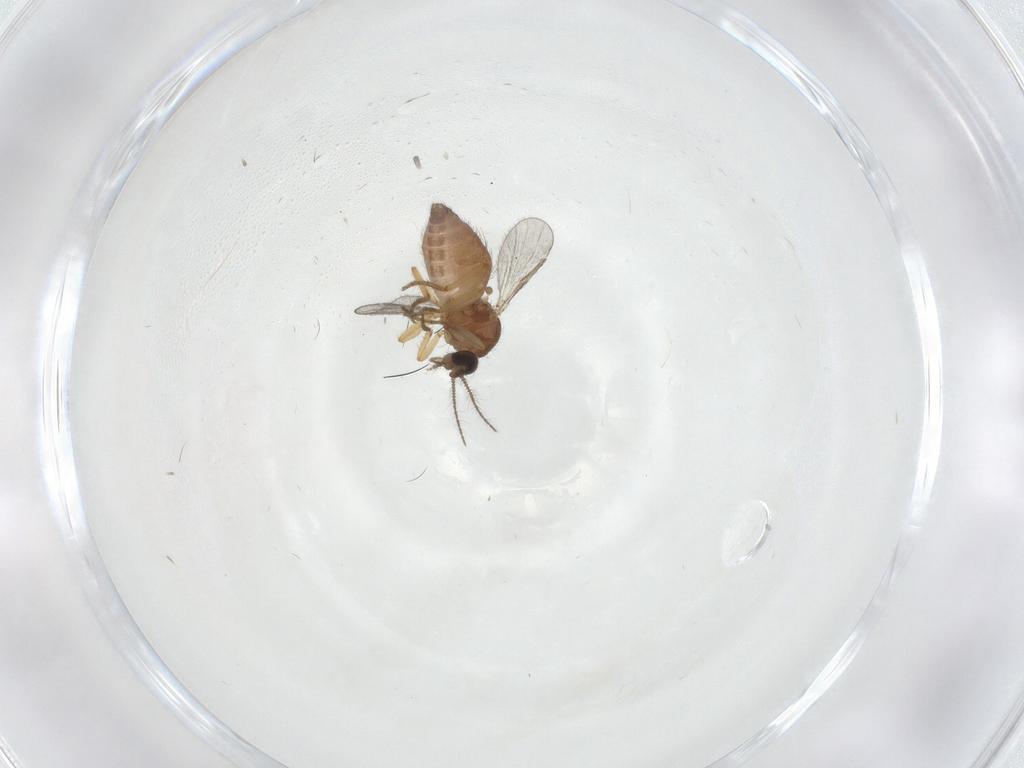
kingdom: Animalia
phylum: Arthropoda
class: Insecta
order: Diptera
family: Ceratopogonidae
